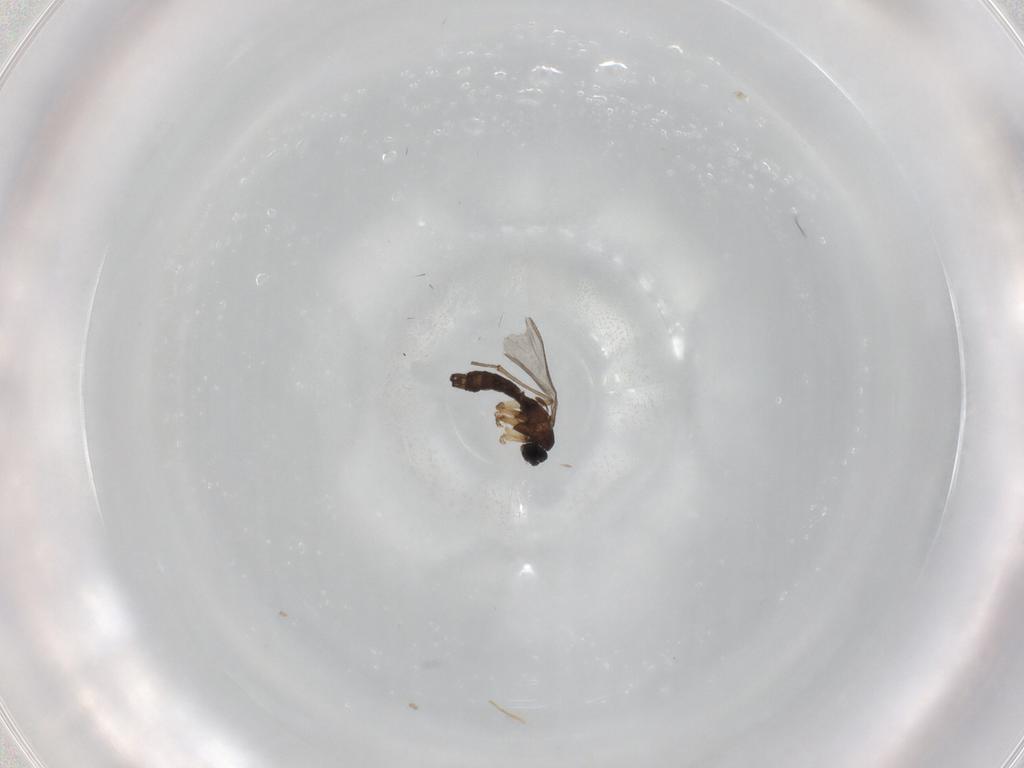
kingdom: Animalia
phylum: Arthropoda
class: Insecta
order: Diptera
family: Sciaridae
